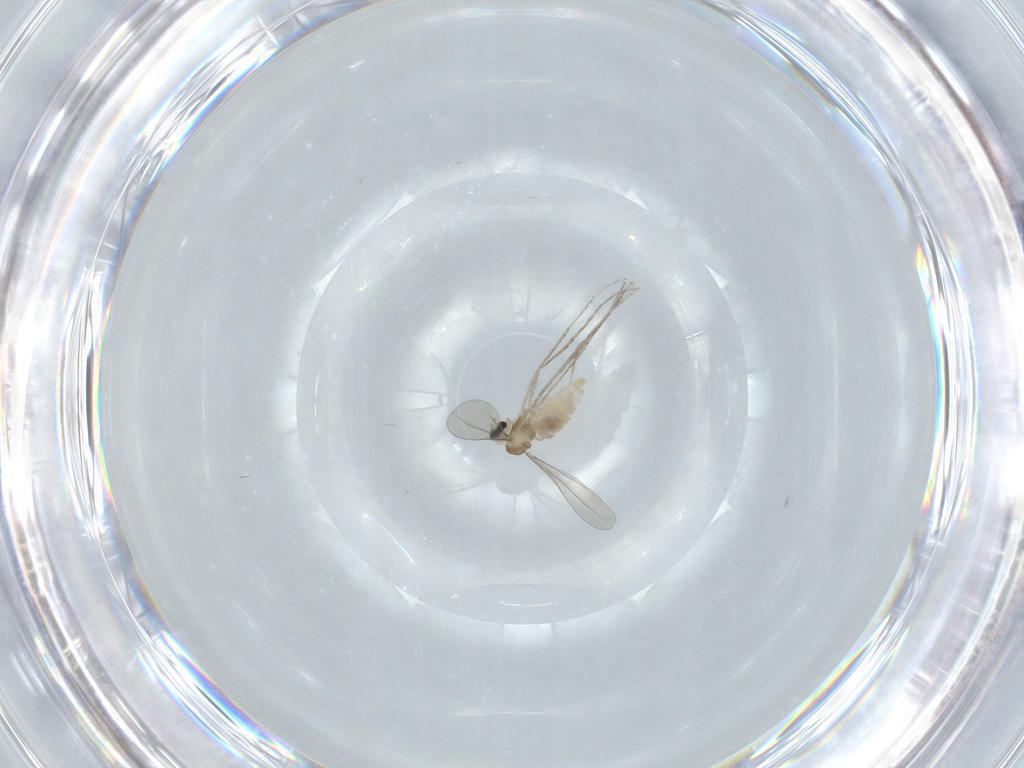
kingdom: Animalia
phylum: Arthropoda
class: Insecta
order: Diptera
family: Cecidomyiidae
